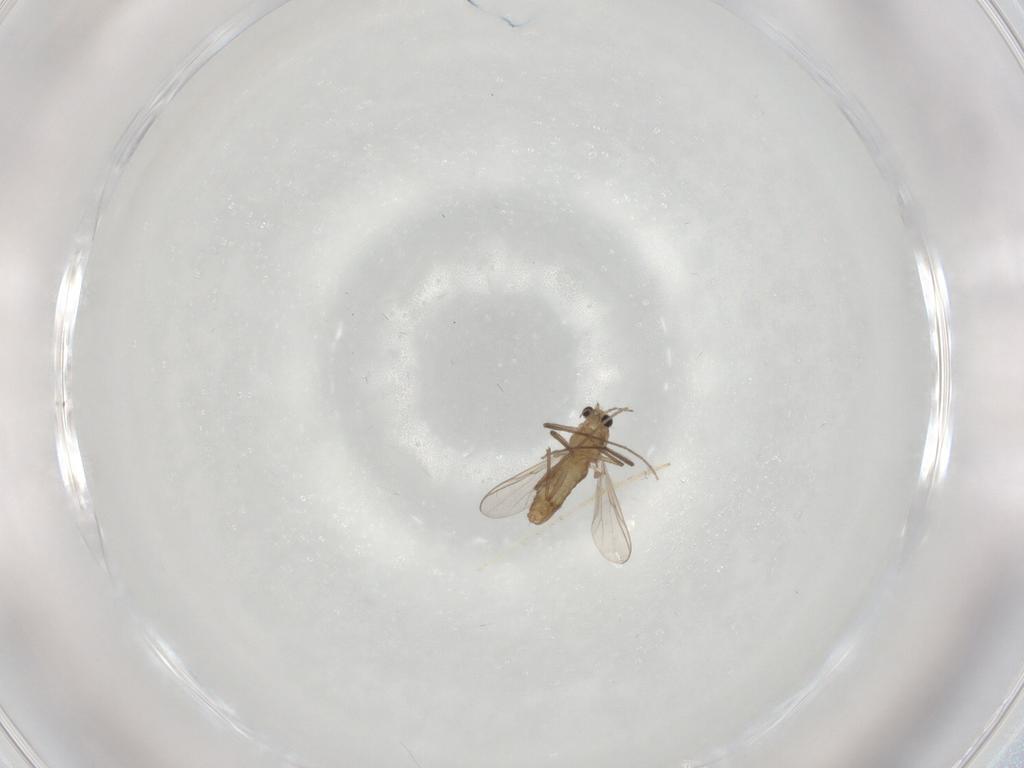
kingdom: Animalia
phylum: Arthropoda
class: Insecta
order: Diptera
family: Chironomidae
